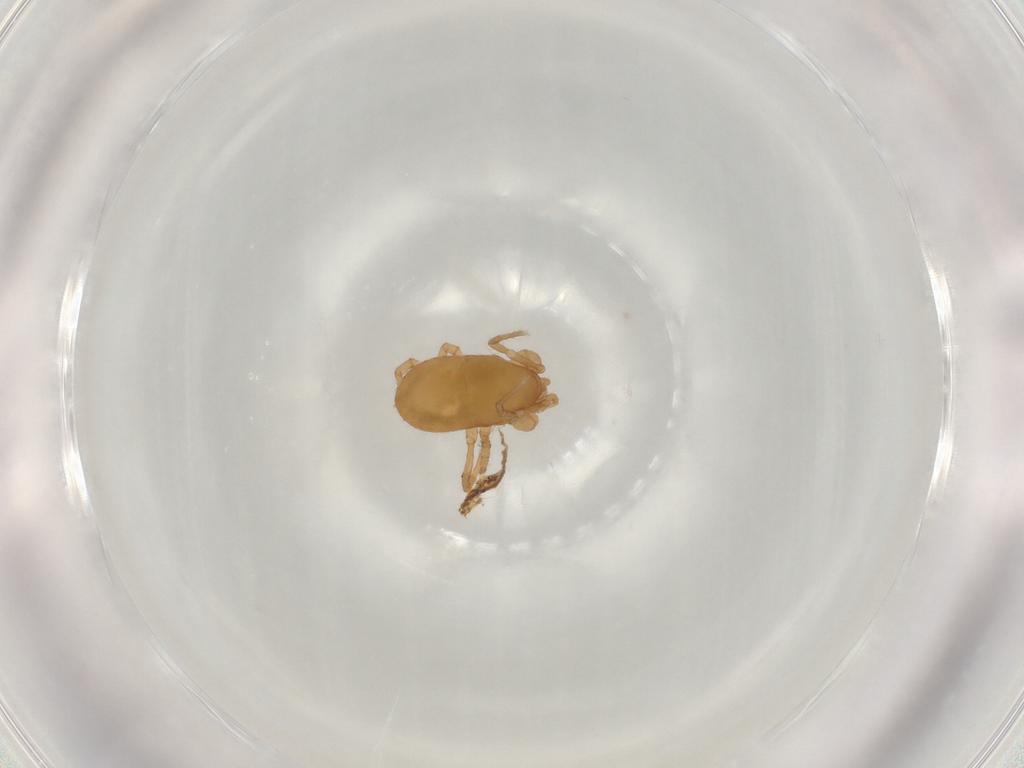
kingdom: Animalia
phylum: Arthropoda
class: Arachnida
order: Mesostigmata
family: Parasitidae
